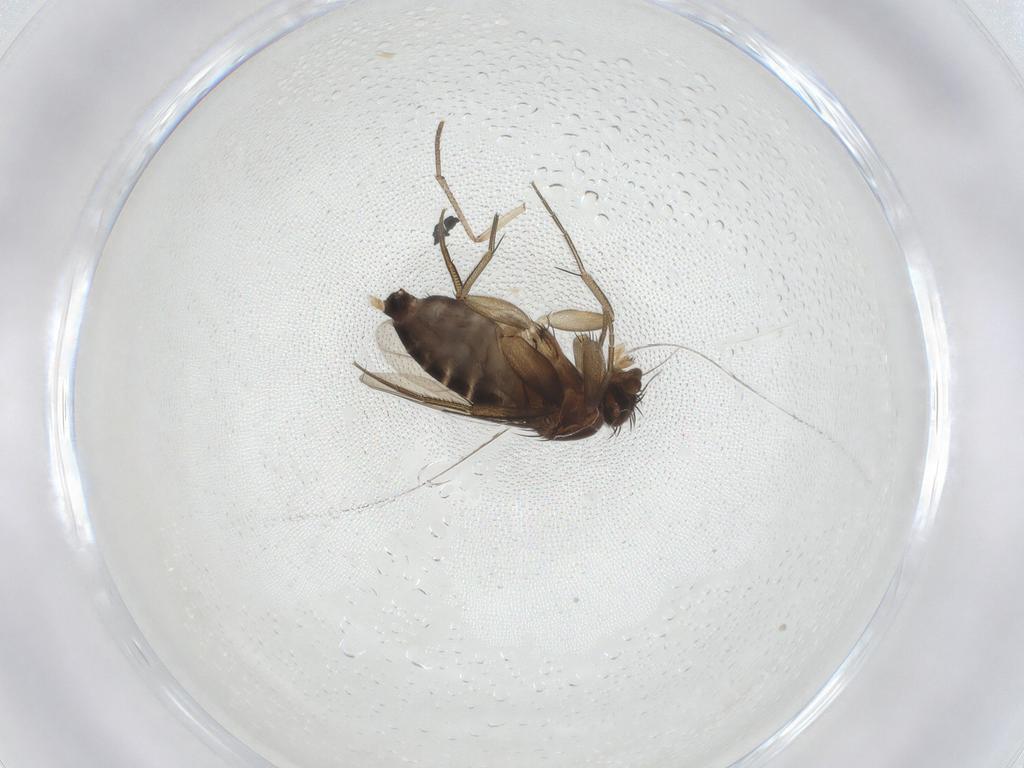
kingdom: Animalia
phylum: Arthropoda
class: Insecta
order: Diptera
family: Phoridae
